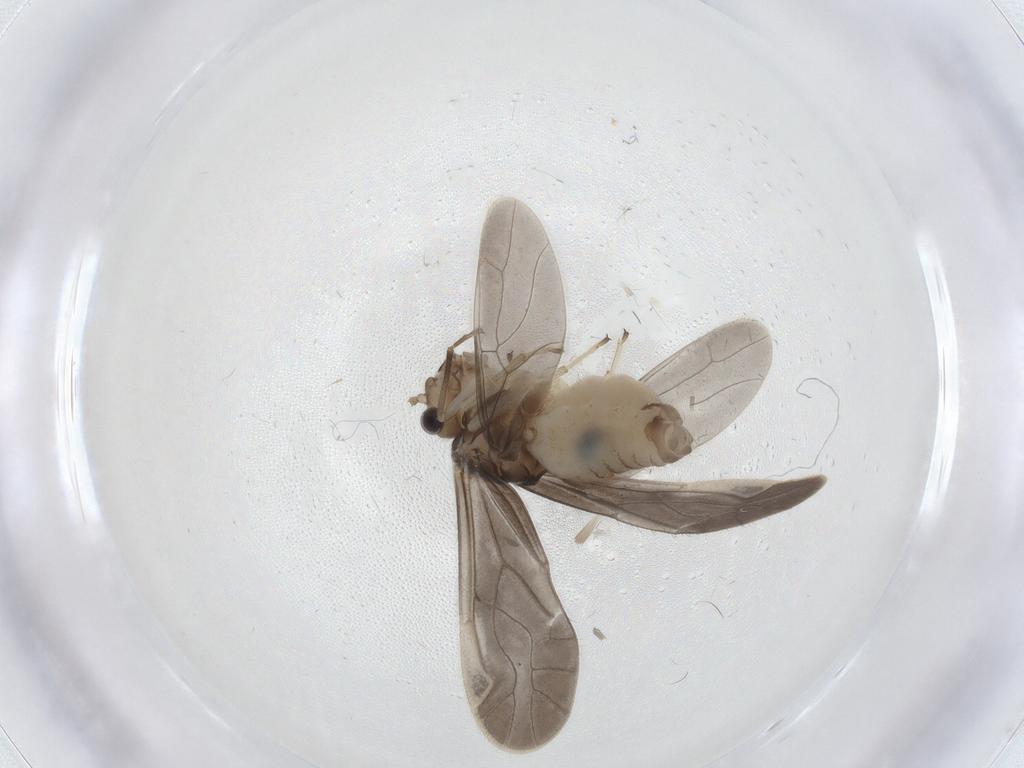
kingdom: Animalia
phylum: Arthropoda
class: Insecta
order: Psocodea
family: Caeciliusidae
